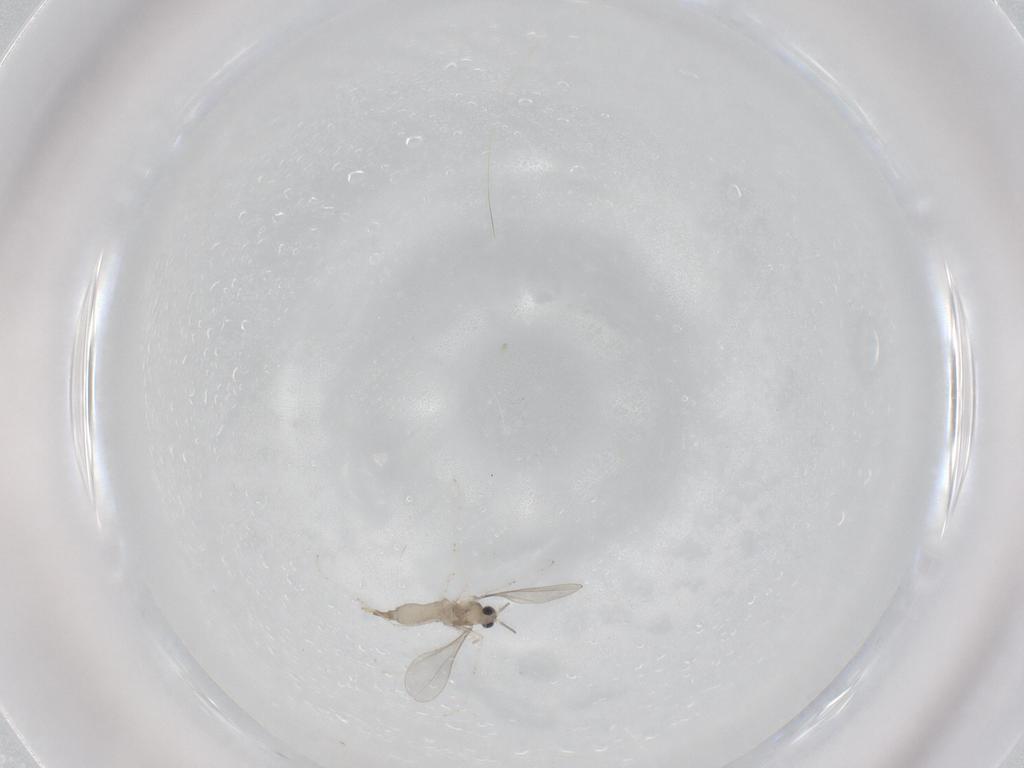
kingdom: Animalia
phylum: Arthropoda
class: Insecta
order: Diptera
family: Cecidomyiidae
